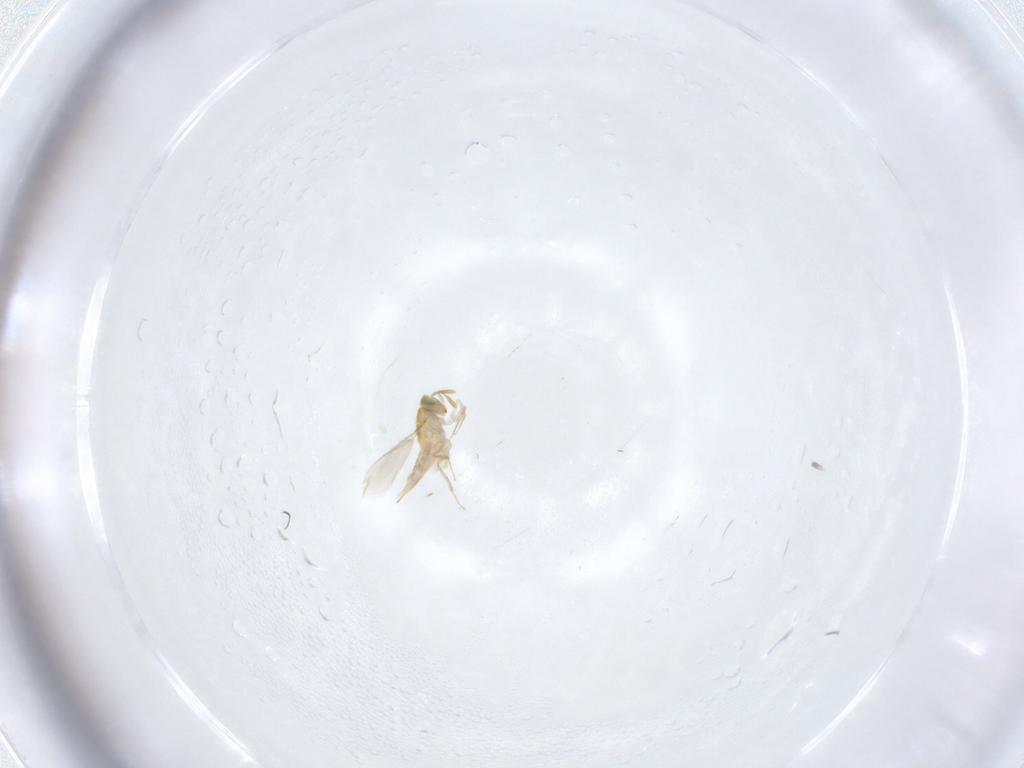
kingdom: Animalia
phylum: Arthropoda
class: Insecta
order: Hymenoptera
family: Aphelinidae
